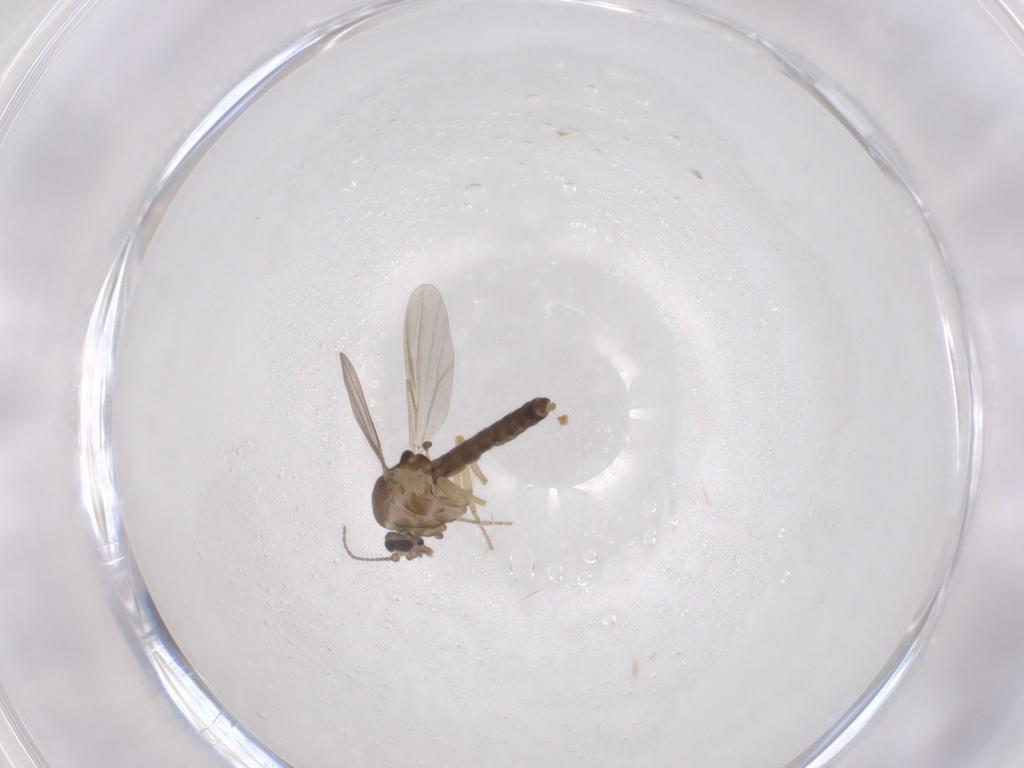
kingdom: Animalia
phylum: Arthropoda
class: Insecta
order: Diptera
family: Ceratopogonidae
